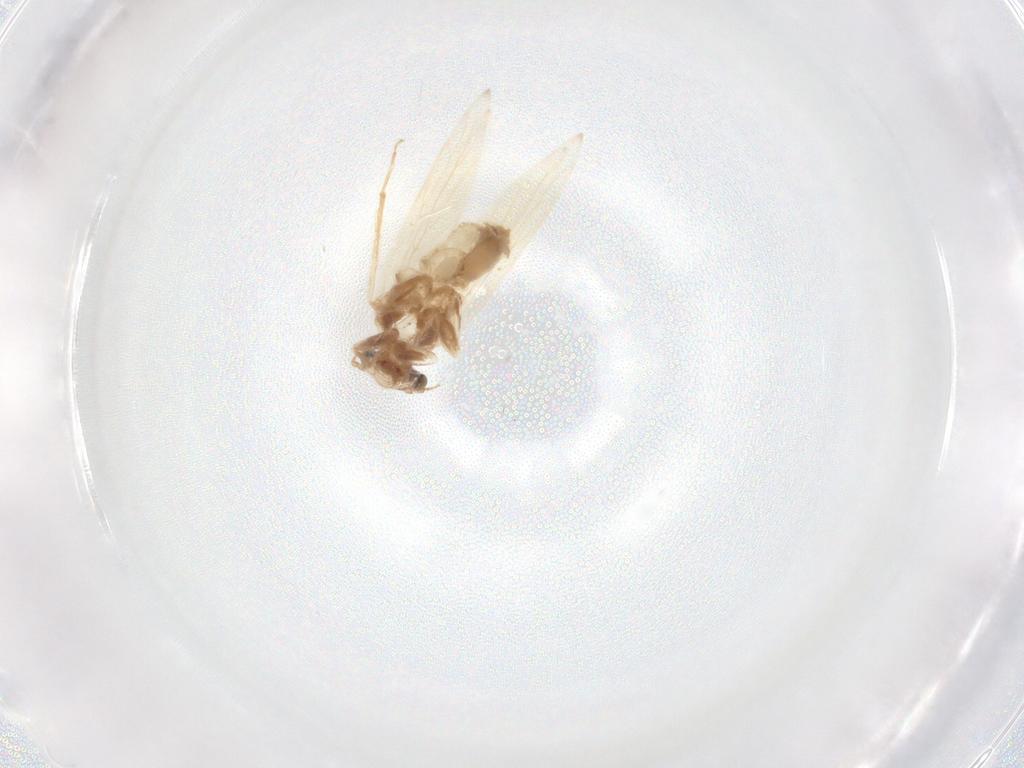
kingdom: Animalia
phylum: Arthropoda
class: Insecta
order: Psocodea
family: Lepidopsocidae
